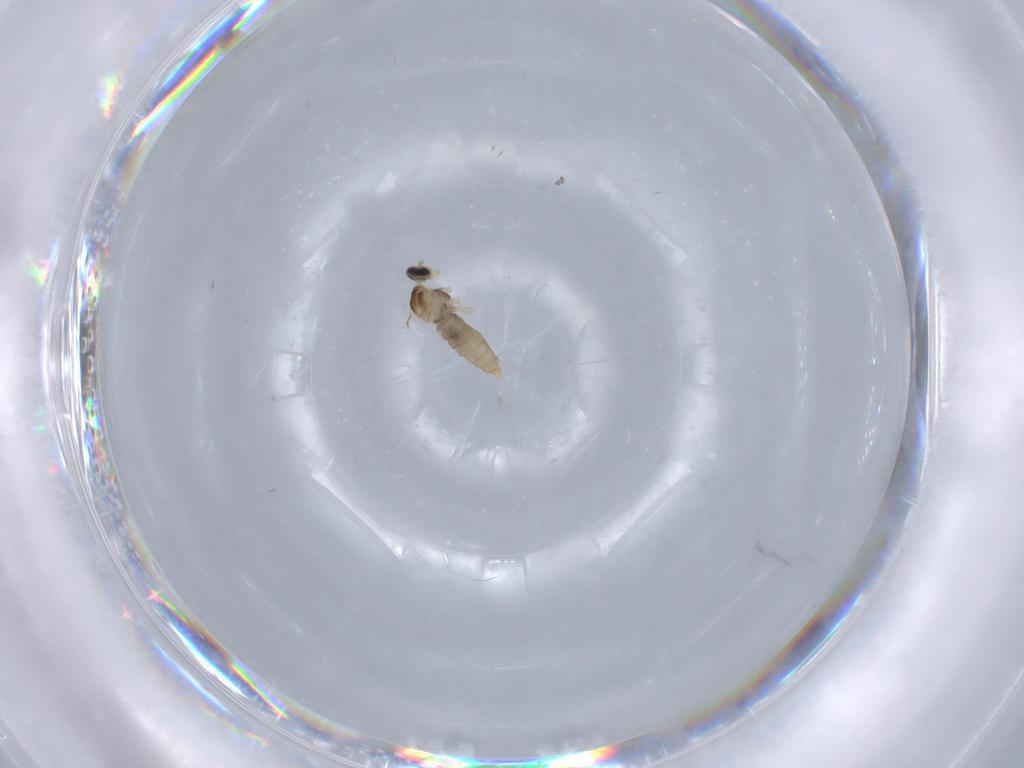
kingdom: Animalia
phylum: Arthropoda
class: Insecta
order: Diptera
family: Cecidomyiidae
